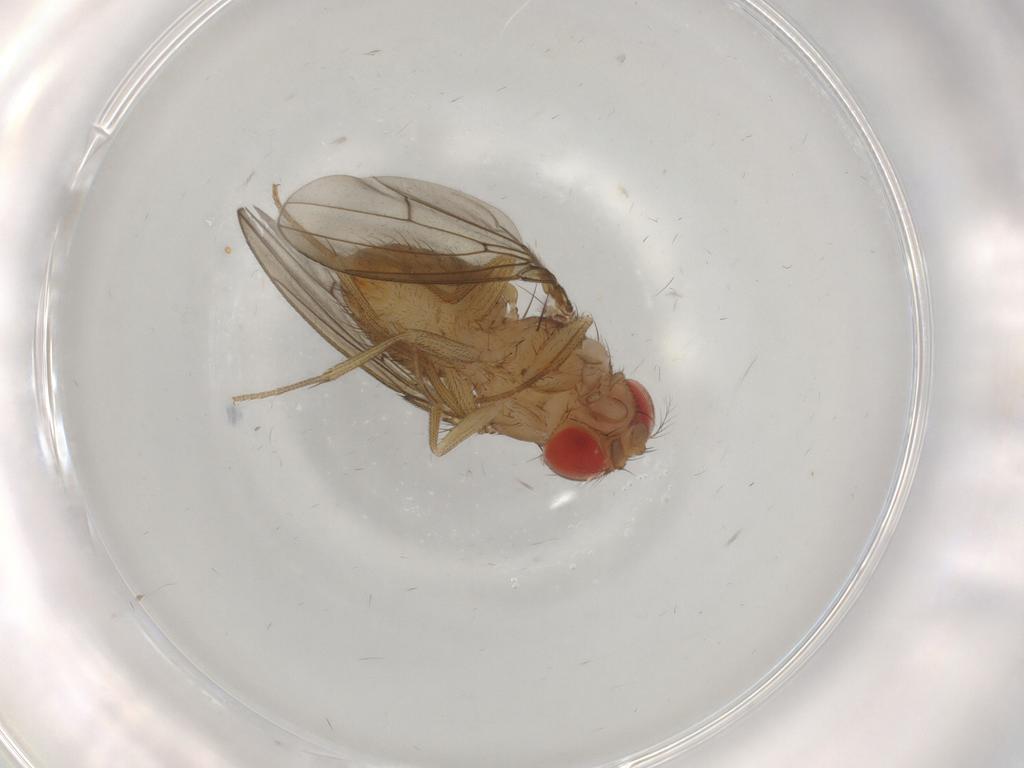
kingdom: Animalia
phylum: Arthropoda
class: Insecta
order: Diptera
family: Drosophilidae
